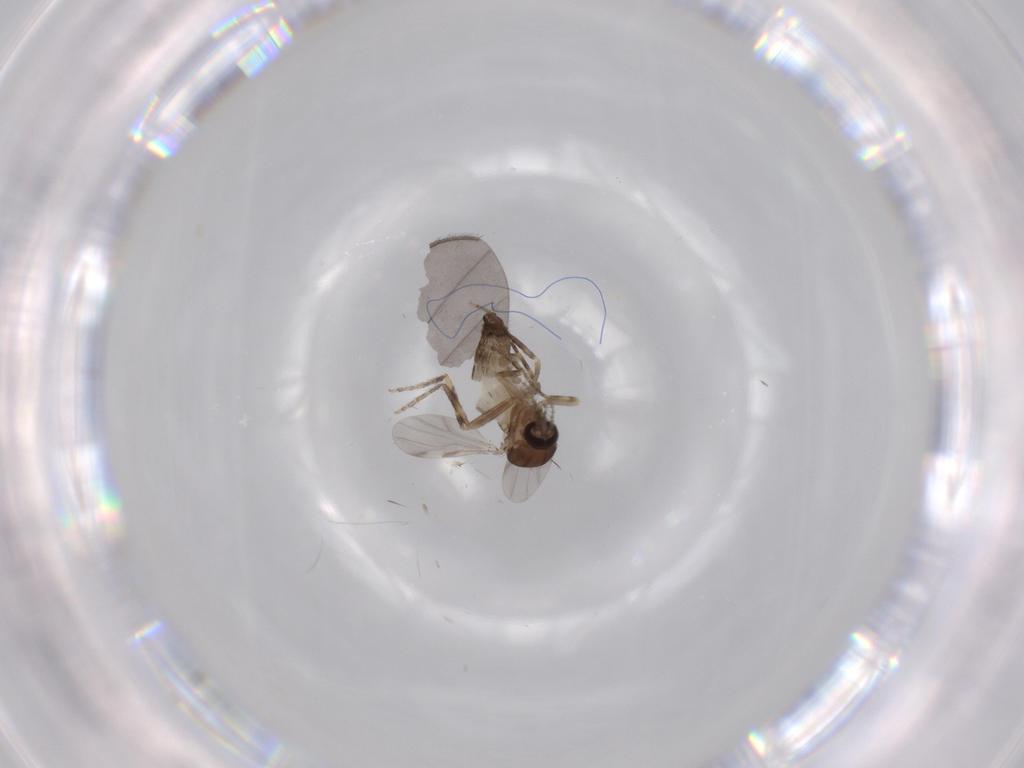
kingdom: Animalia
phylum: Arthropoda
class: Insecta
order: Diptera
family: Ceratopogonidae
